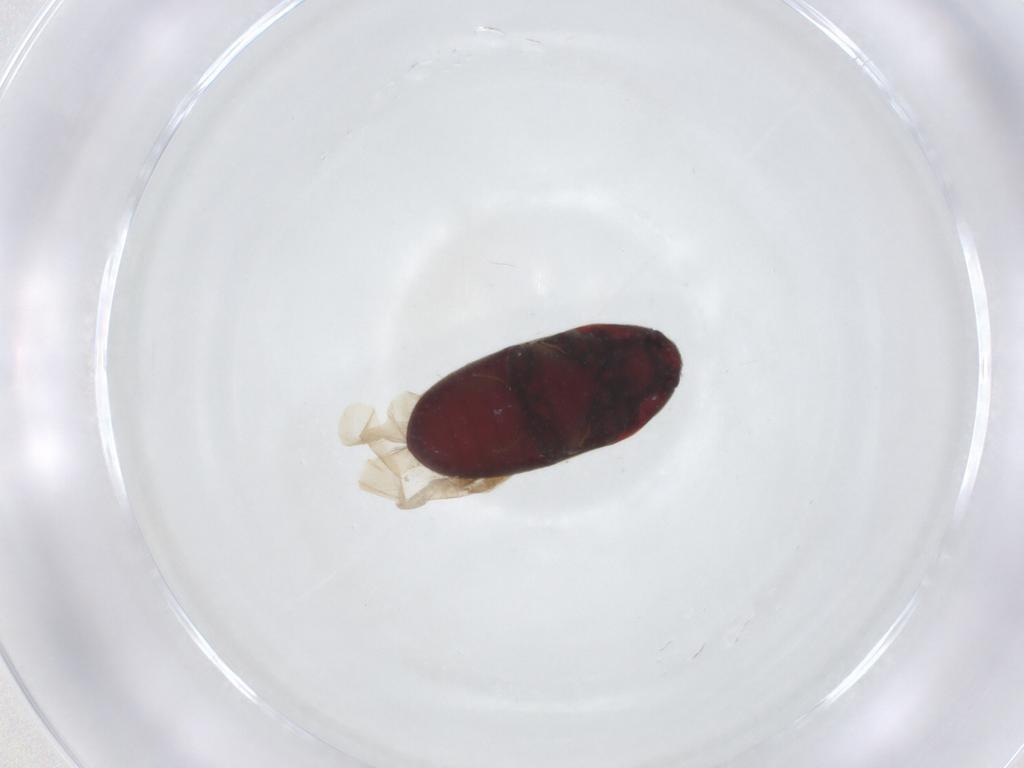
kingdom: Animalia
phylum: Arthropoda
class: Insecta
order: Coleoptera
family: Throscidae
